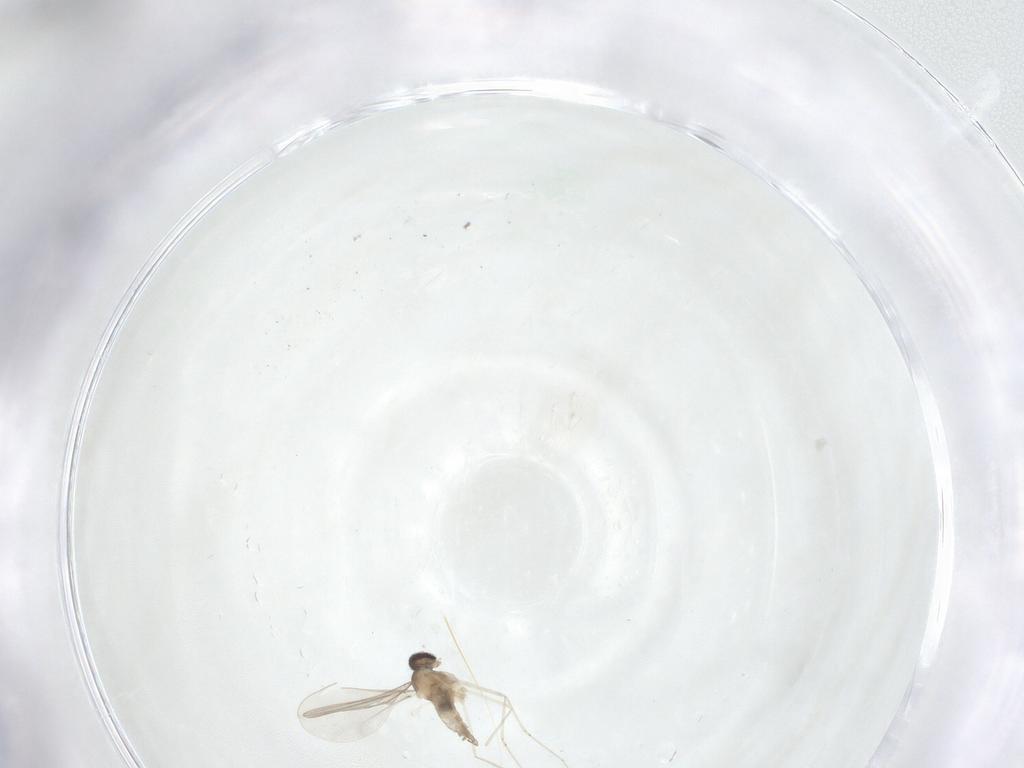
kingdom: Animalia
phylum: Arthropoda
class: Insecta
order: Diptera
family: Cecidomyiidae
